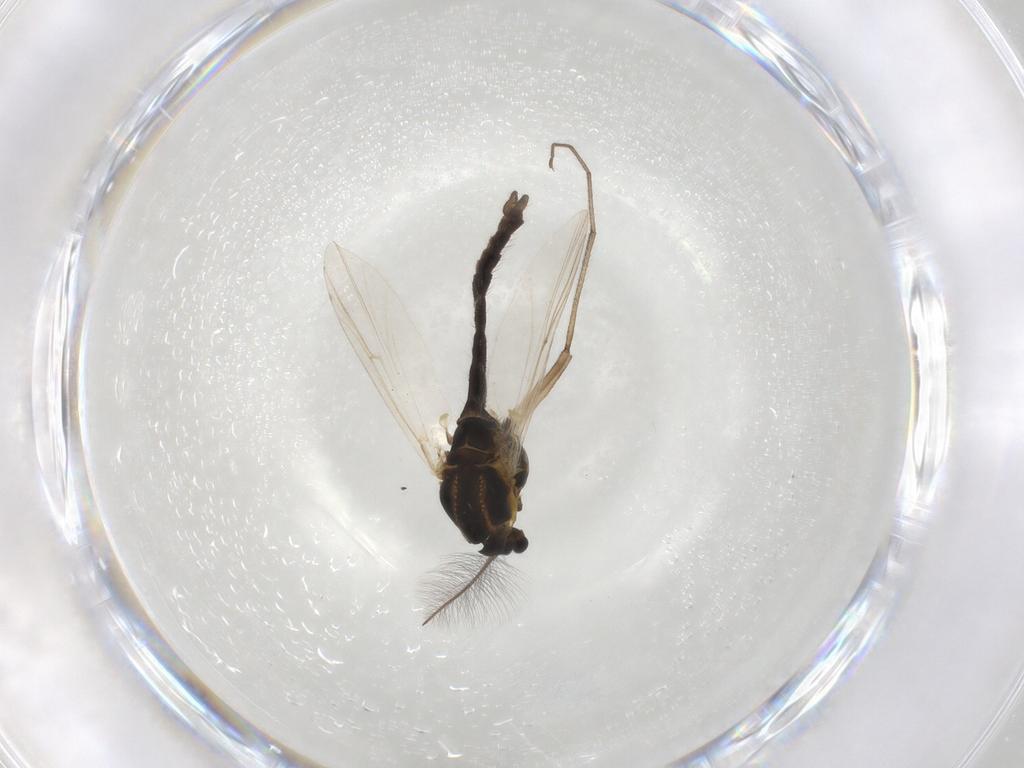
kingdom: Animalia
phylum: Arthropoda
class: Insecta
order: Diptera
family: Chironomidae
